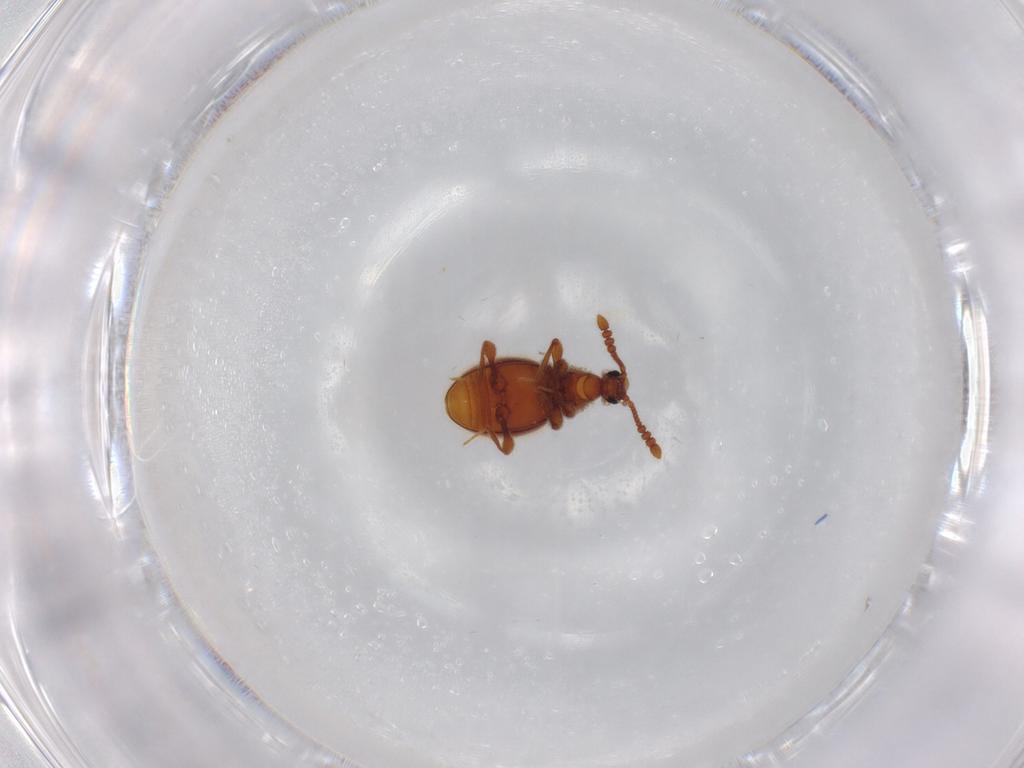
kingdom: Animalia
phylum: Arthropoda
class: Insecta
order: Coleoptera
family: Staphylinidae
